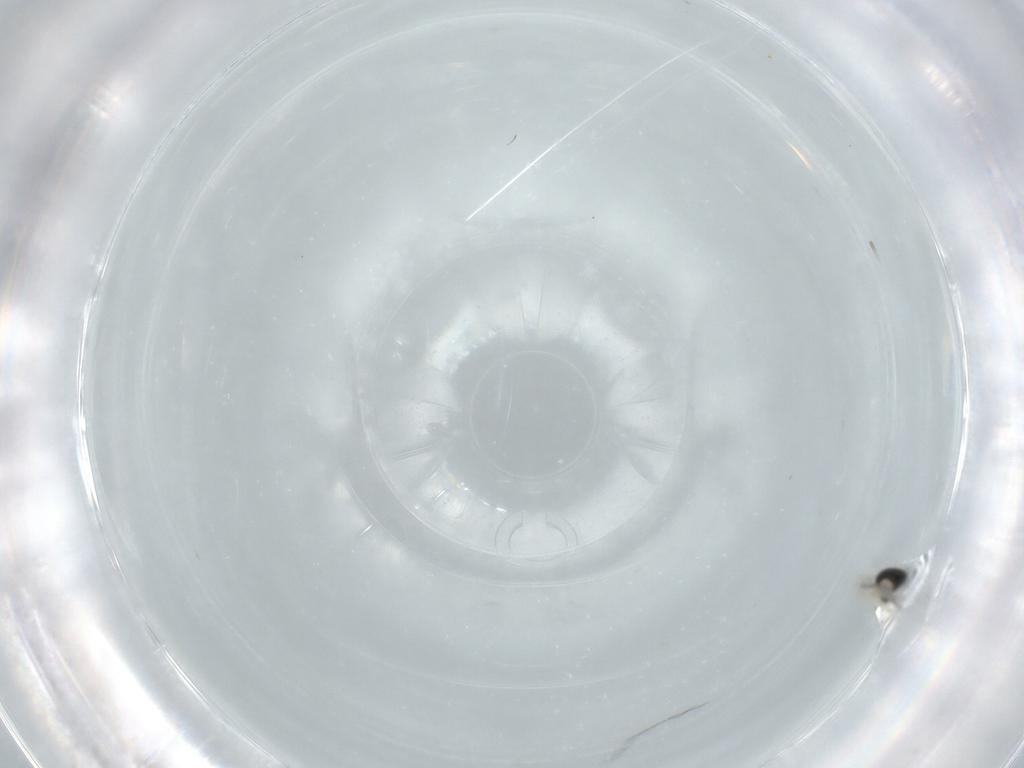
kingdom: Animalia
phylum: Arthropoda
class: Insecta
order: Diptera
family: Cecidomyiidae
